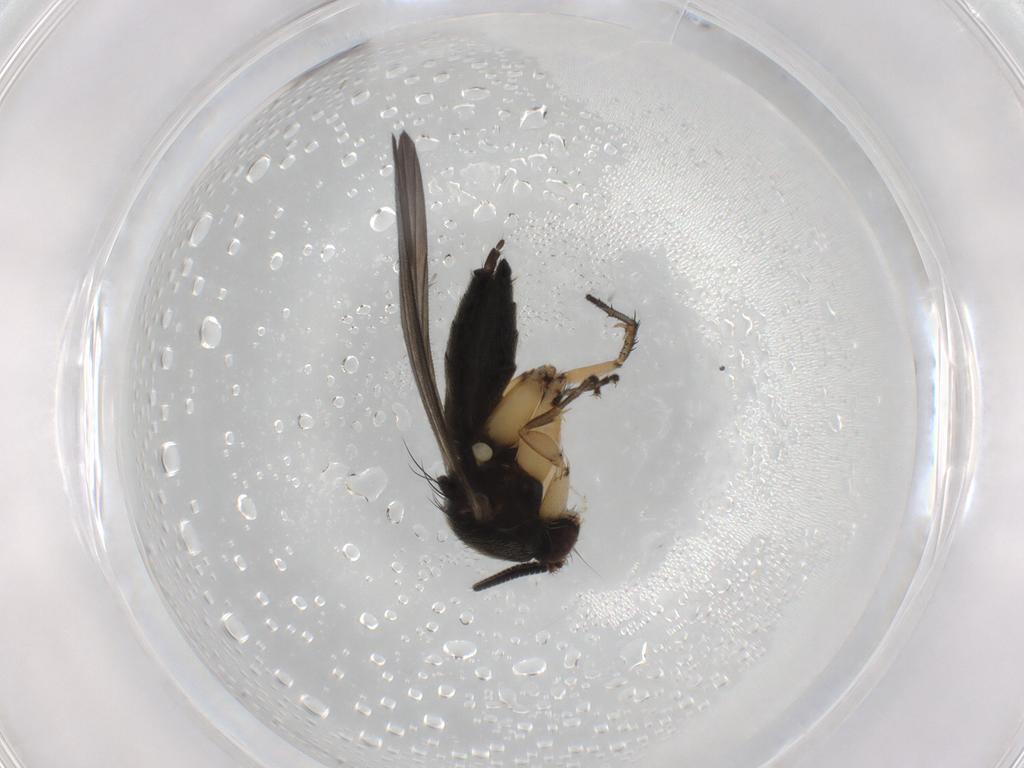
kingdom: Animalia
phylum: Arthropoda
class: Insecta
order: Diptera
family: Mycetophilidae
